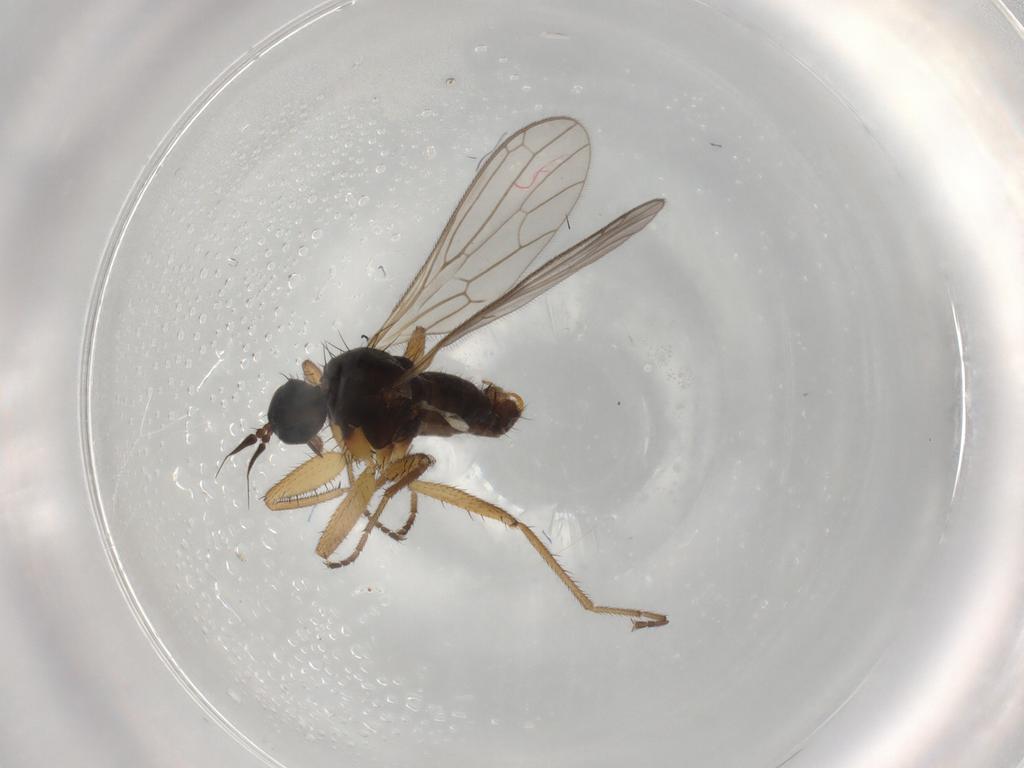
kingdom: Animalia
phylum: Arthropoda
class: Insecta
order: Diptera
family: Empididae
